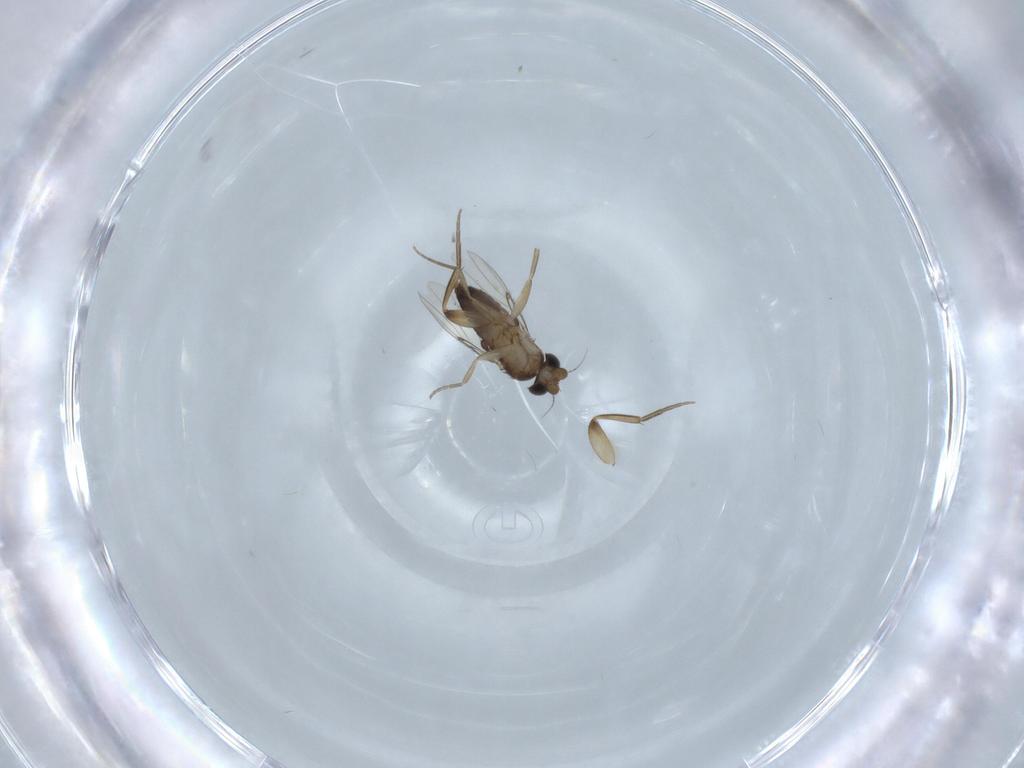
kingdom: Animalia
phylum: Arthropoda
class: Insecta
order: Diptera
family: Phoridae
